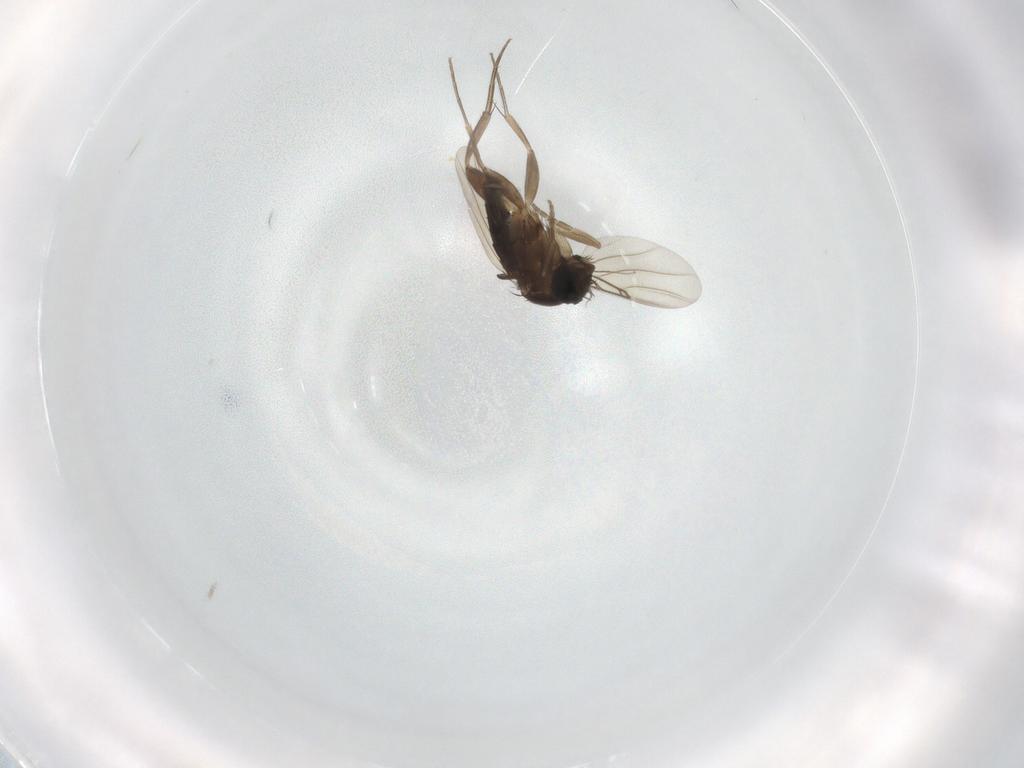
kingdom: Animalia
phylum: Arthropoda
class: Insecta
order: Diptera
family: Phoridae
